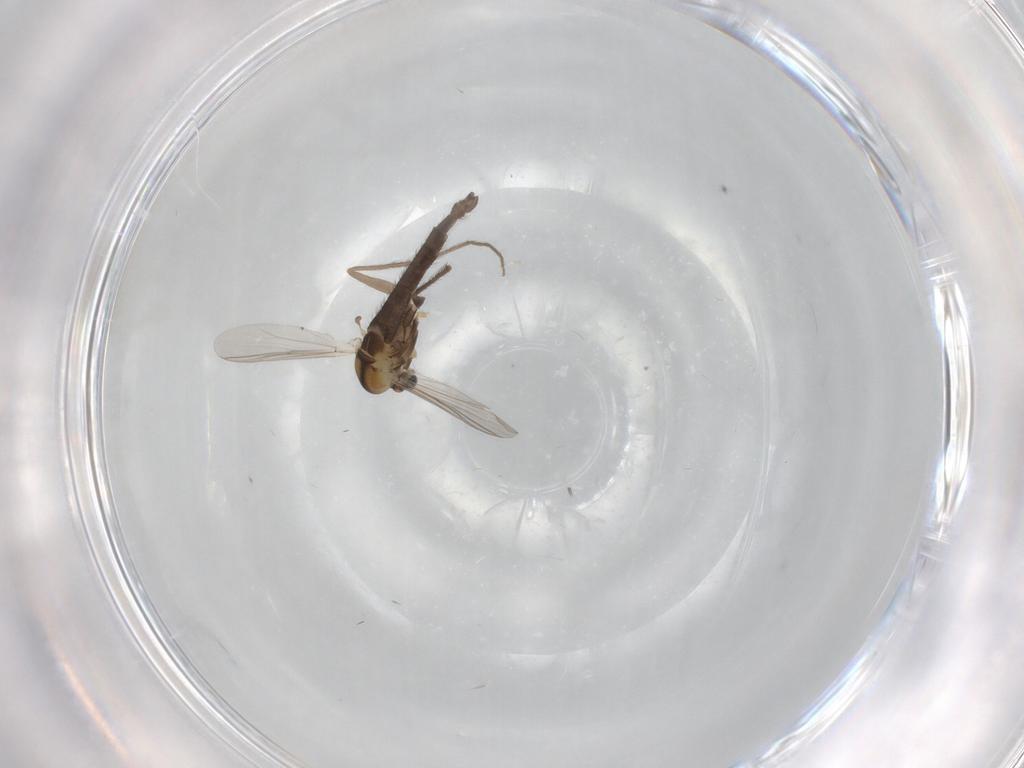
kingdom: Animalia
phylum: Arthropoda
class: Insecta
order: Diptera
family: Chironomidae
